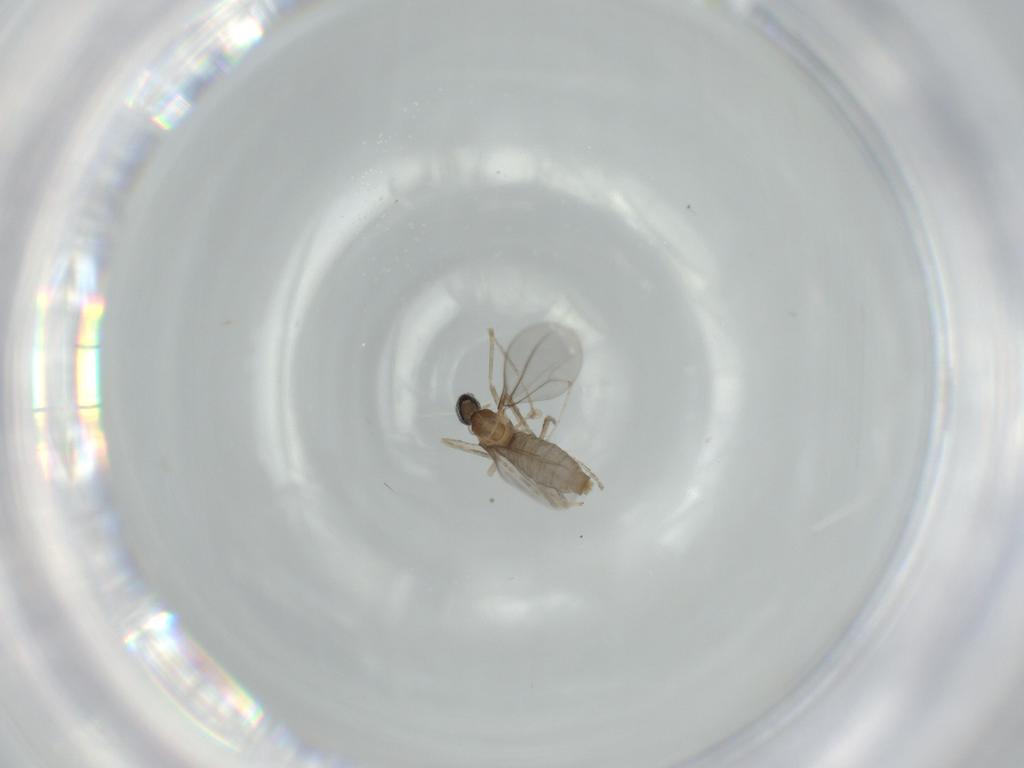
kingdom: Animalia
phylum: Arthropoda
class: Insecta
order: Diptera
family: Cecidomyiidae
